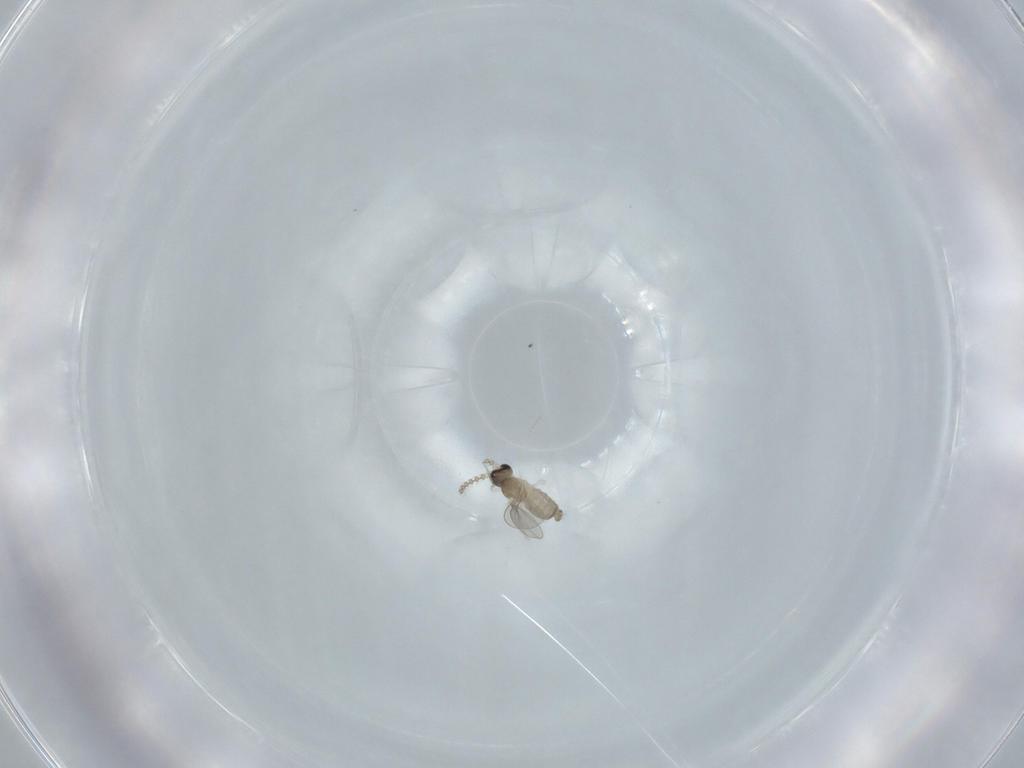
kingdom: Animalia
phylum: Arthropoda
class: Insecta
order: Diptera
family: Cecidomyiidae
